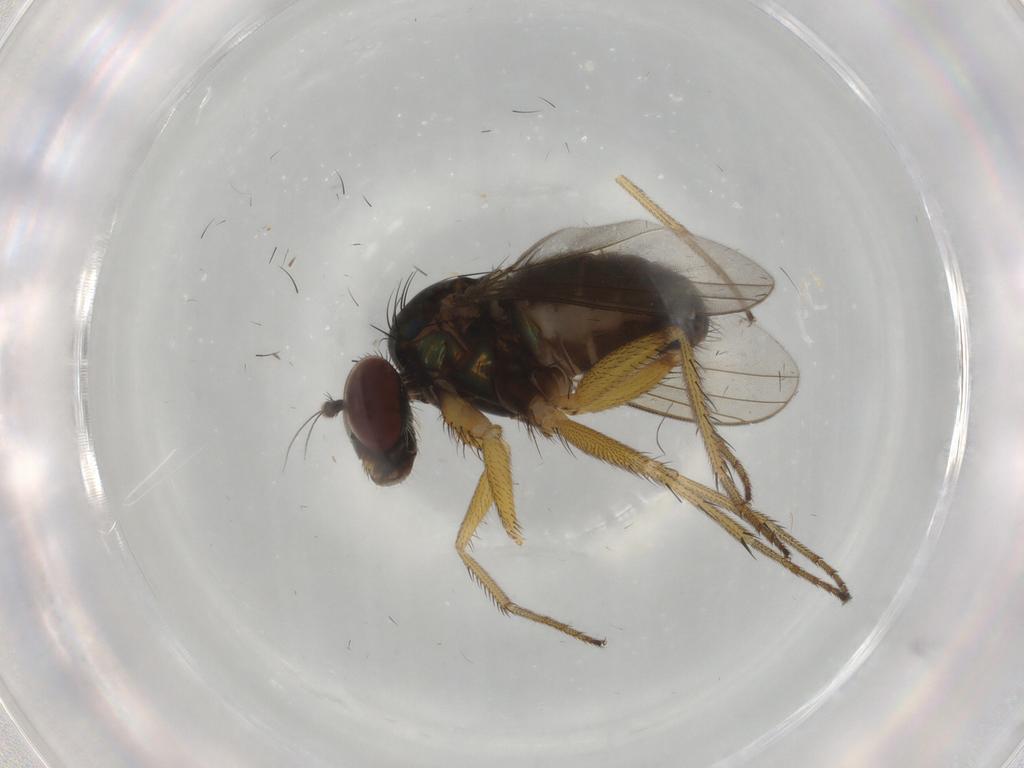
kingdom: Animalia
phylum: Arthropoda
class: Insecta
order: Diptera
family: Dolichopodidae
